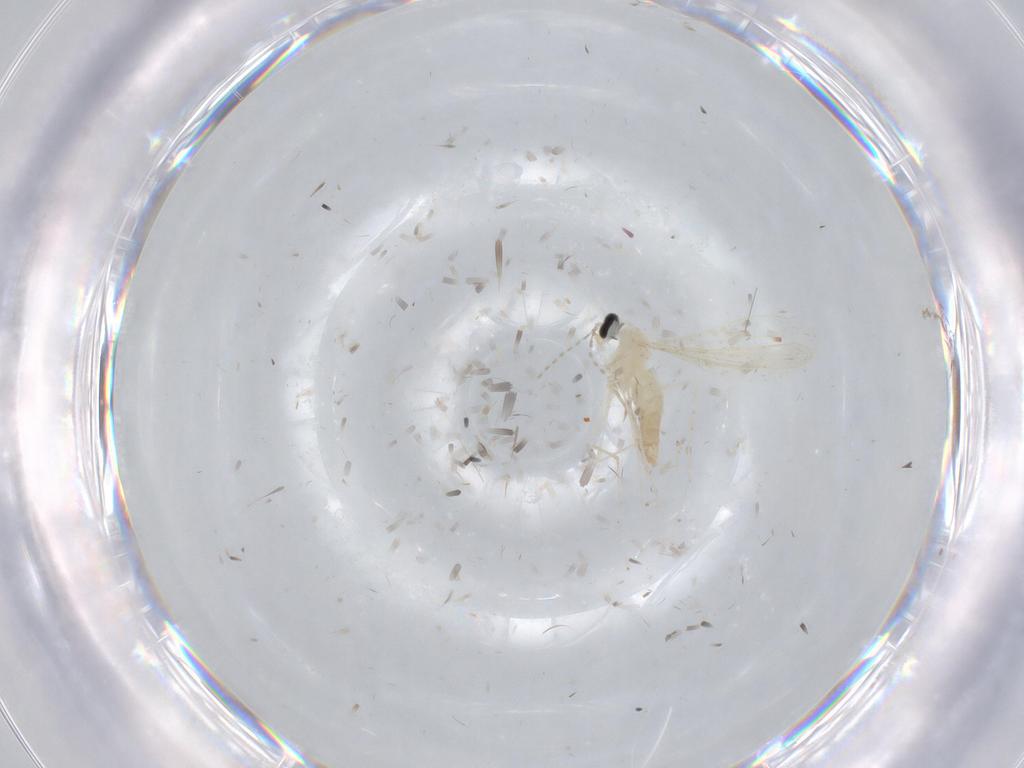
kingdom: Animalia
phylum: Arthropoda
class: Insecta
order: Diptera
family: Cecidomyiidae
